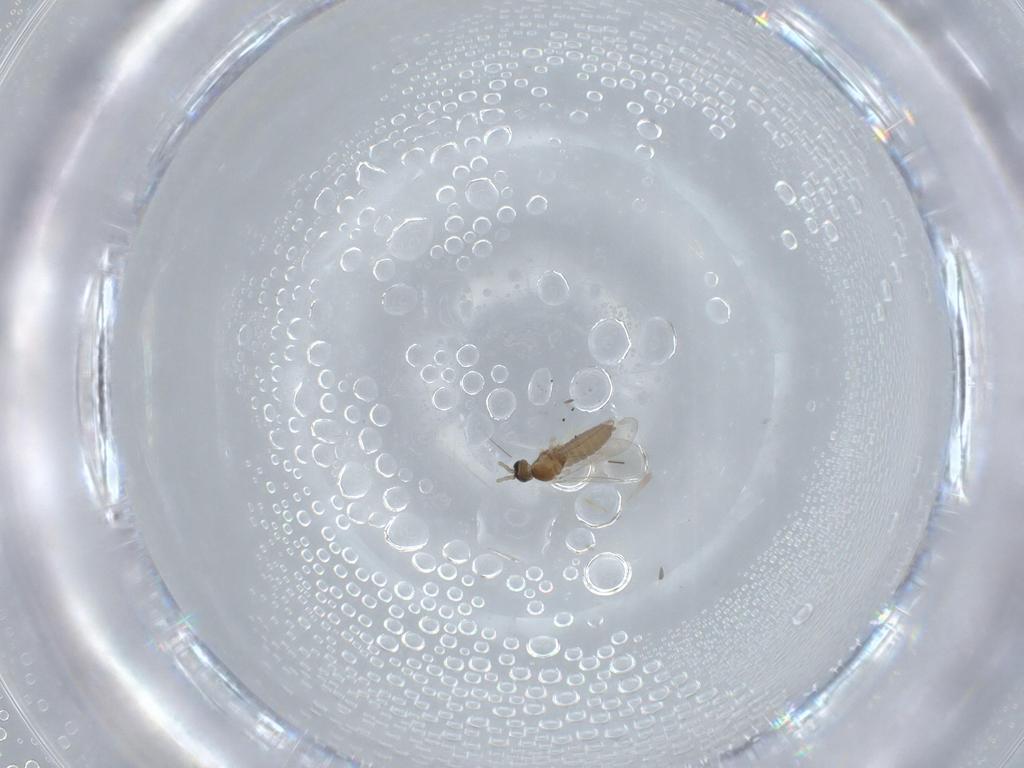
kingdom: Animalia
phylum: Arthropoda
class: Insecta
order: Diptera
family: Cecidomyiidae
